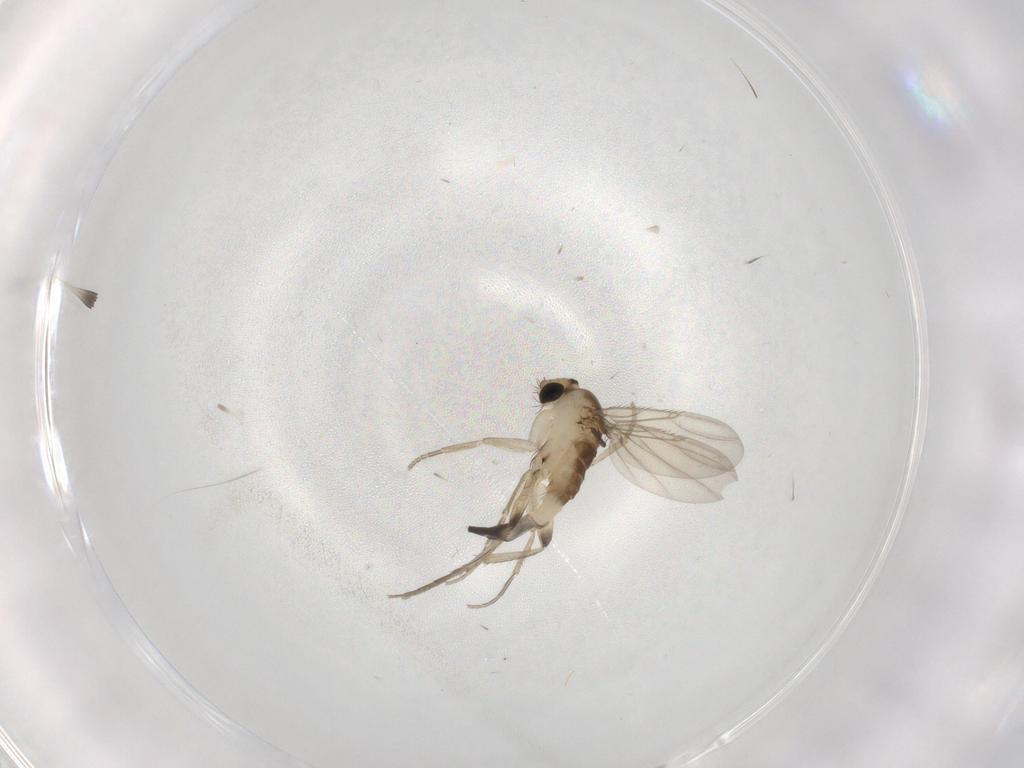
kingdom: Animalia
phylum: Arthropoda
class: Insecta
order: Diptera
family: Phoridae
